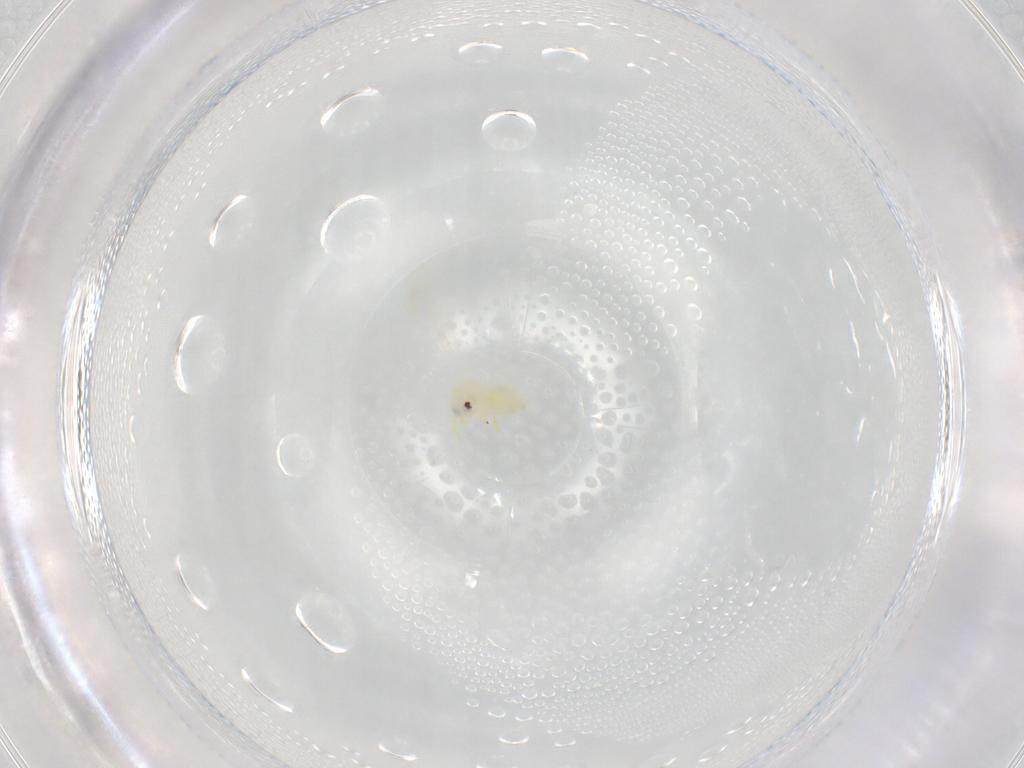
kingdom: Animalia
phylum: Arthropoda
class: Insecta
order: Hemiptera
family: Aleyrodidae
